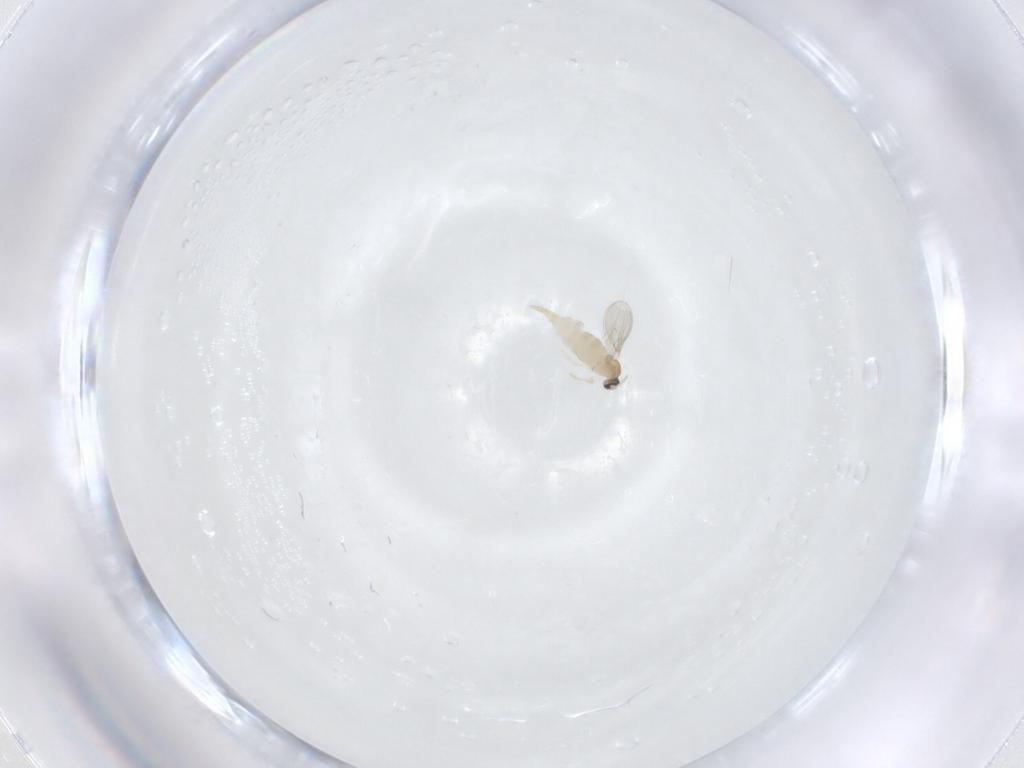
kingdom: Animalia
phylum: Arthropoda
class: Insecta
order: Diptera
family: Cecidomyiidae
